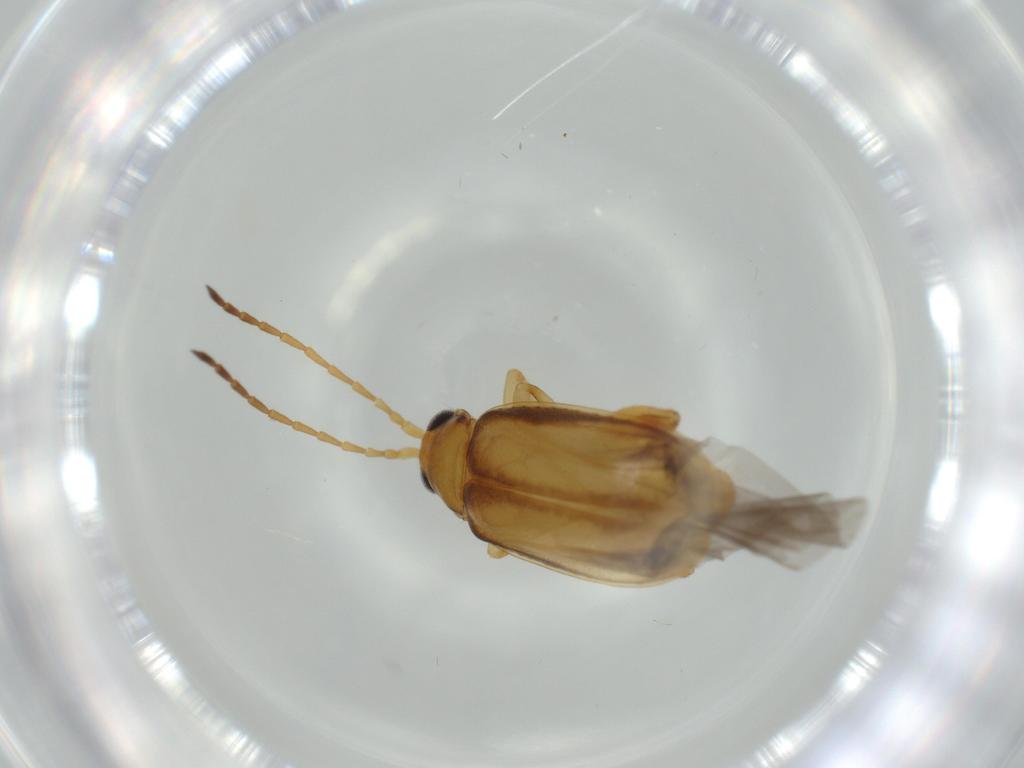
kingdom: Animalia
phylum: Arthropoda
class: Insecta
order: Coleoptera
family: Chrysomelidae
